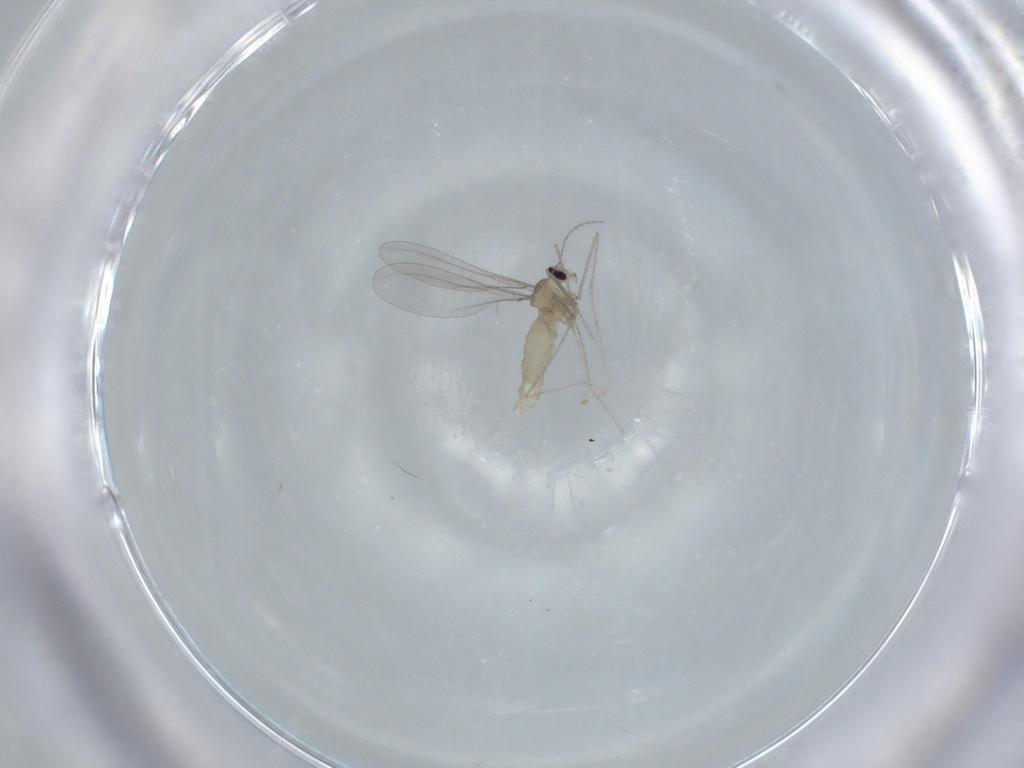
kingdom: Animalia
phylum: Arthropoda
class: Insecta
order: Diptera
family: Cecidomyiidae
